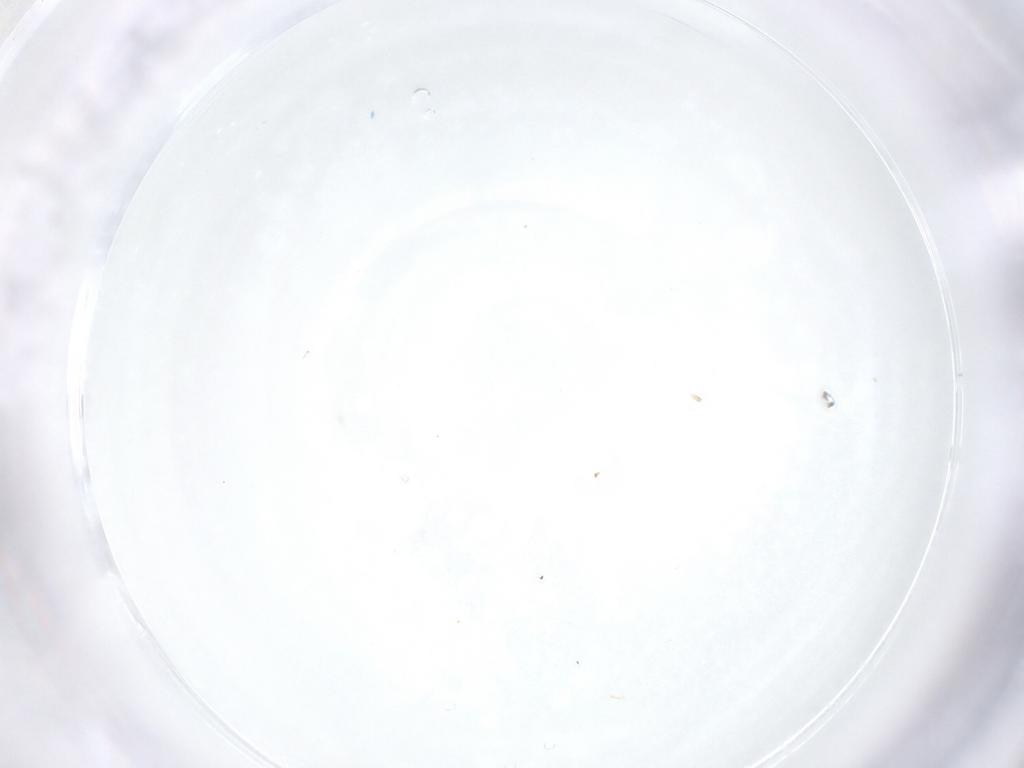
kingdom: Animalia
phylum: Arthropoda
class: Insecta
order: Diptera
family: Cecidomyiidae
